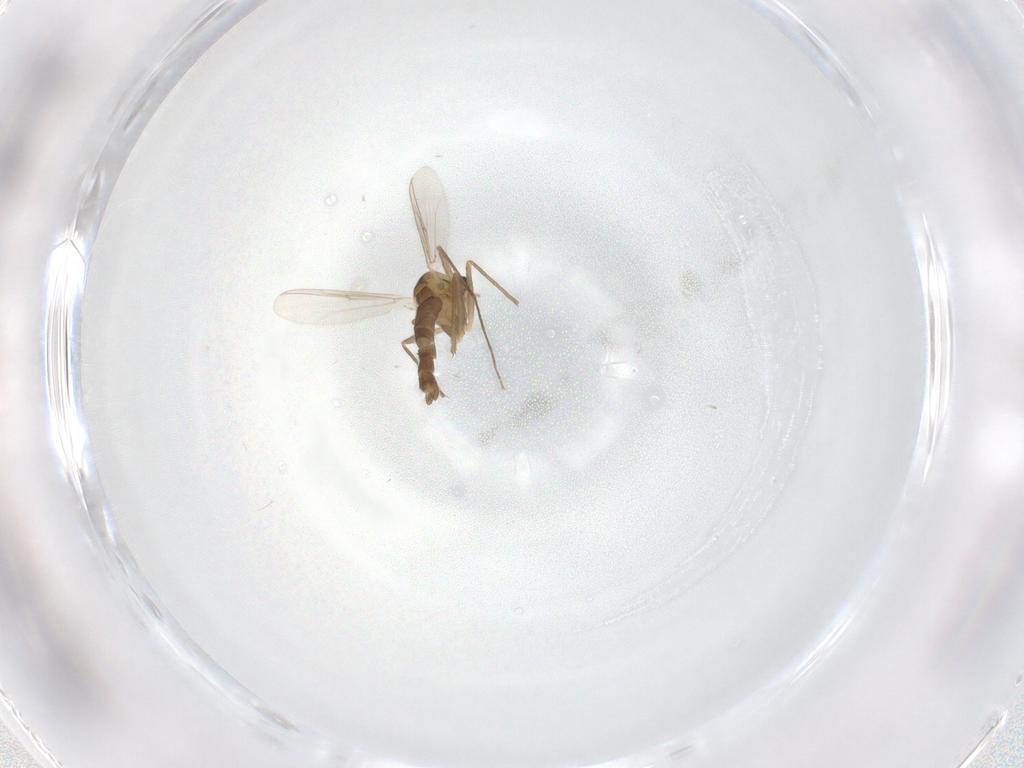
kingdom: Animalia
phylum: Arthropoda
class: Insecta
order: Diptera
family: Chironomidae
